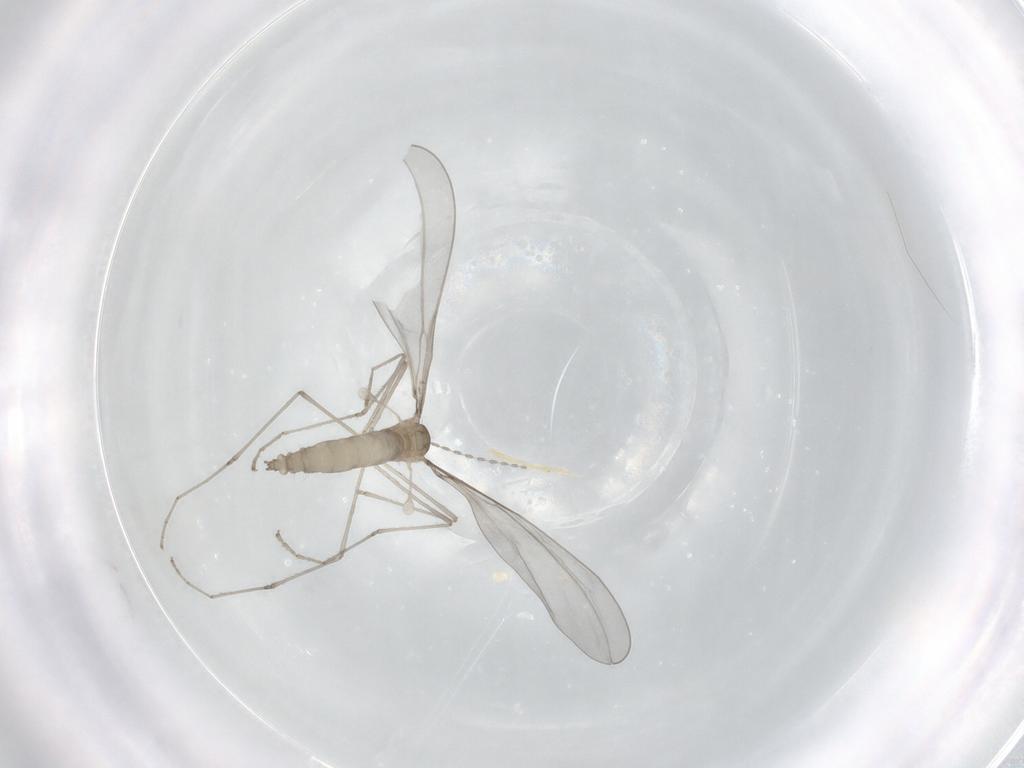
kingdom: Animalia
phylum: Arthropoda
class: Insecta
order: Diptera
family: Cecidomyiidae
